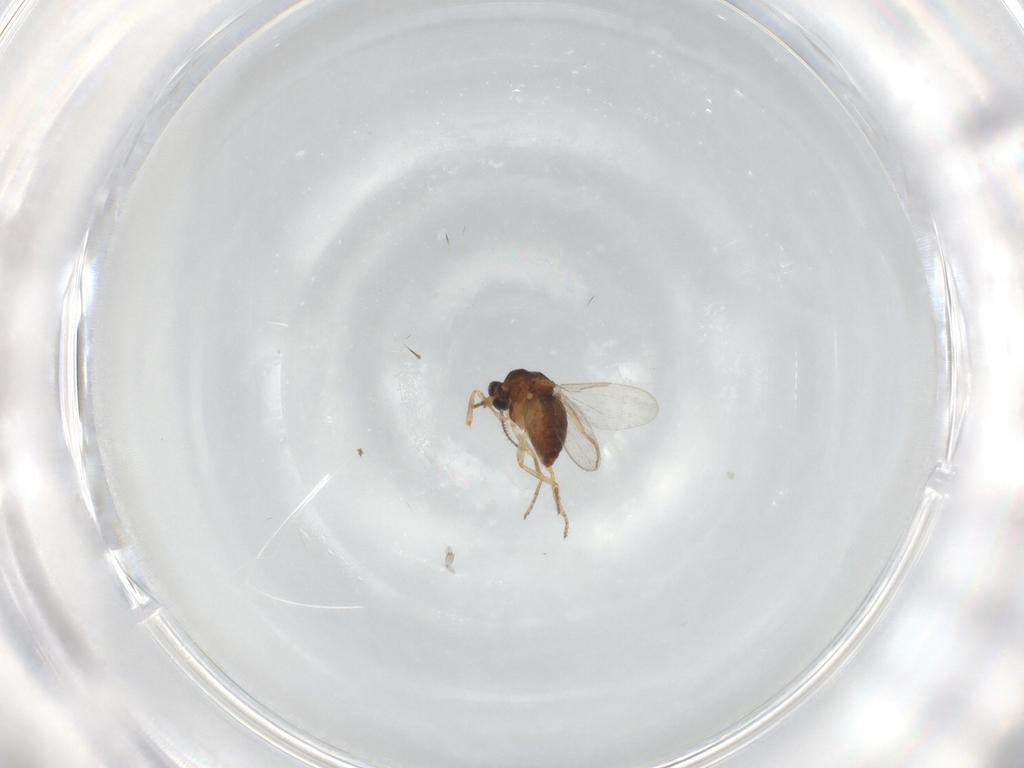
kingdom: Animalia
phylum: Arthropoda
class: Insecta
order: Diptera
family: Ceratopogonidae
